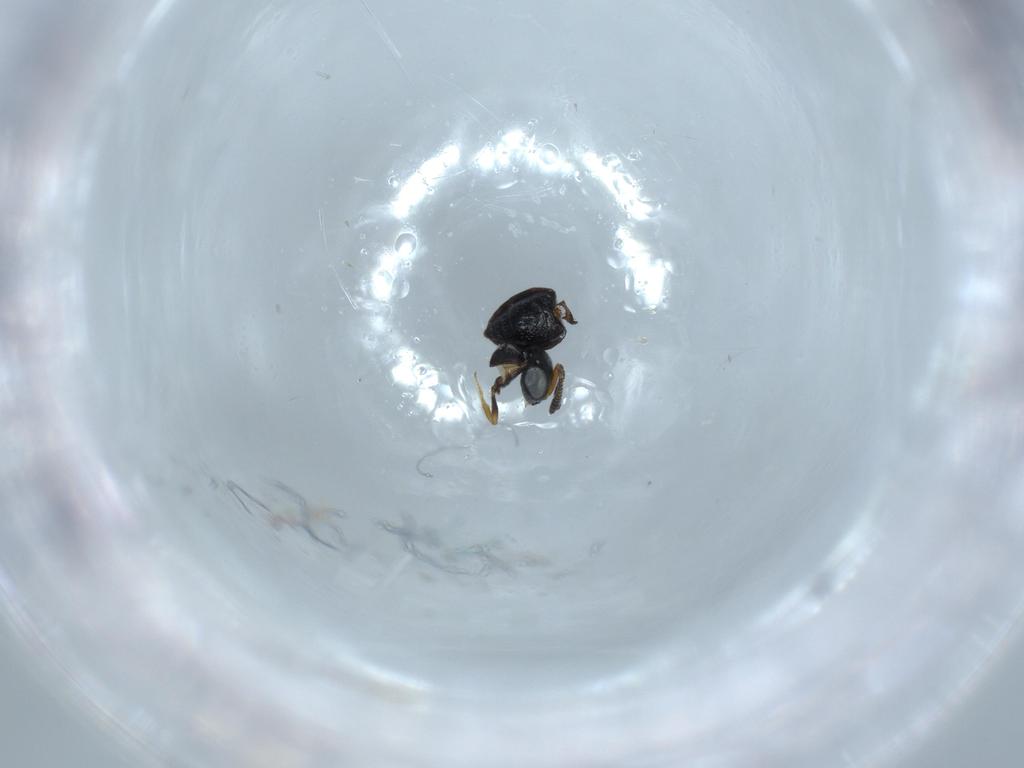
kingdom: Animalia
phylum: Arthropoda
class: Insecta
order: Hymenoptera
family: Scelionidae
